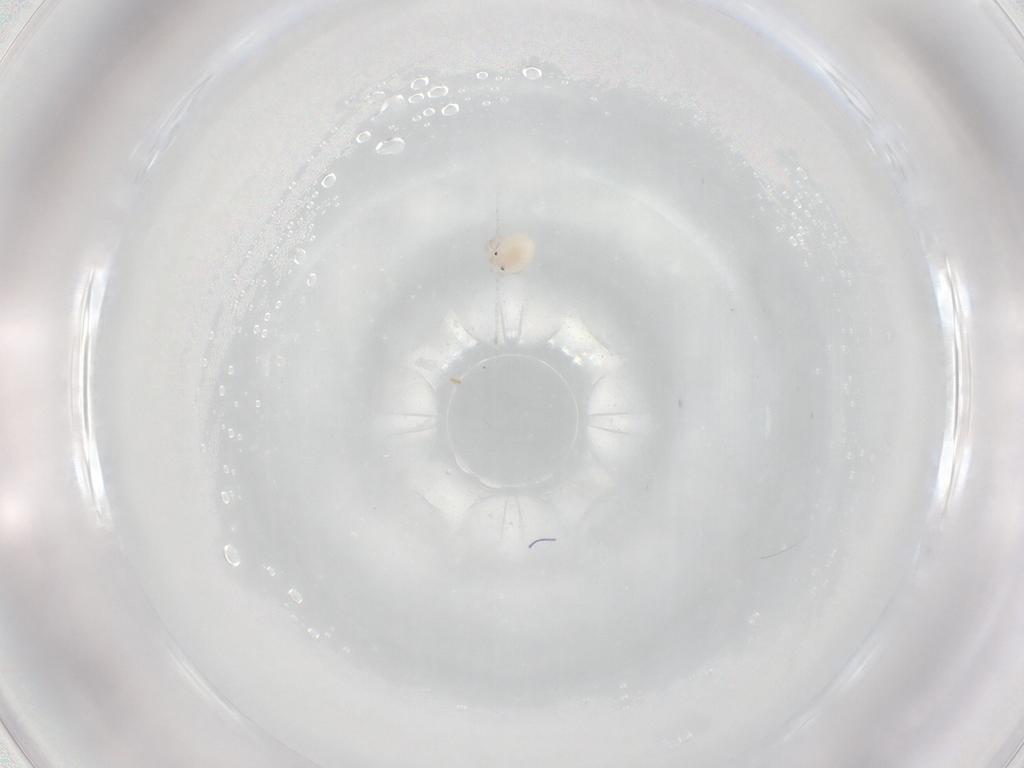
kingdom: Animalia
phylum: Arthropoda
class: Arachnida
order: Trombidiformes
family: Lebertiidae
